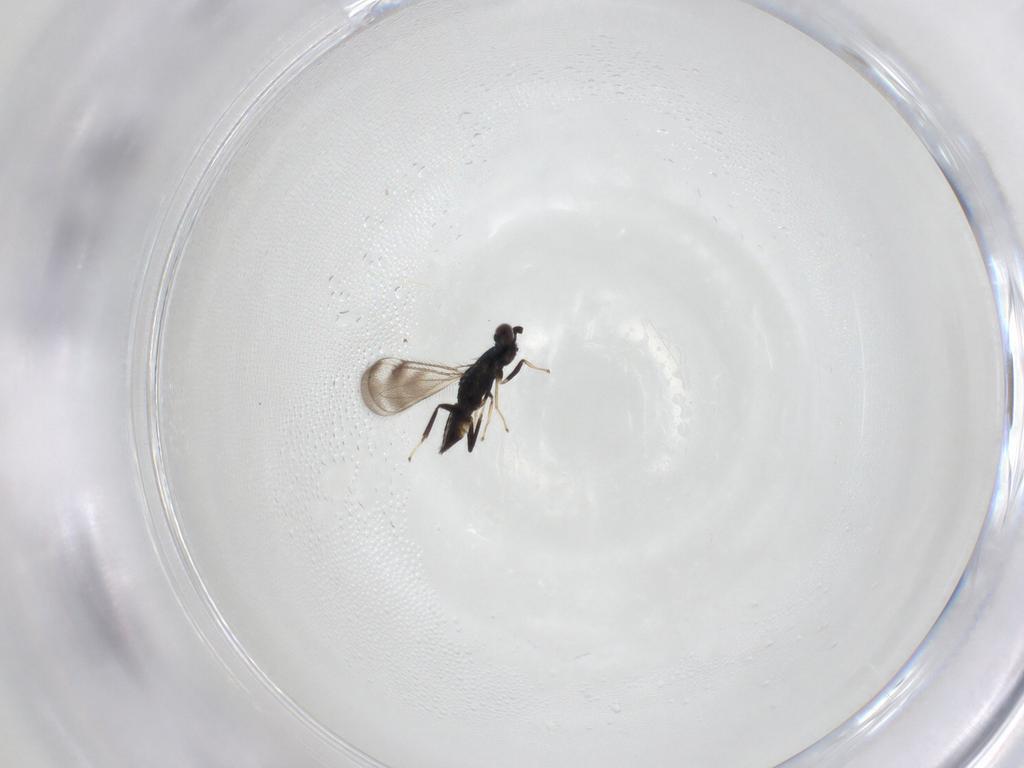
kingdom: Animalia
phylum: Arthropoda
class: Insecta
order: Hymenoptera
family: Eulophidae
